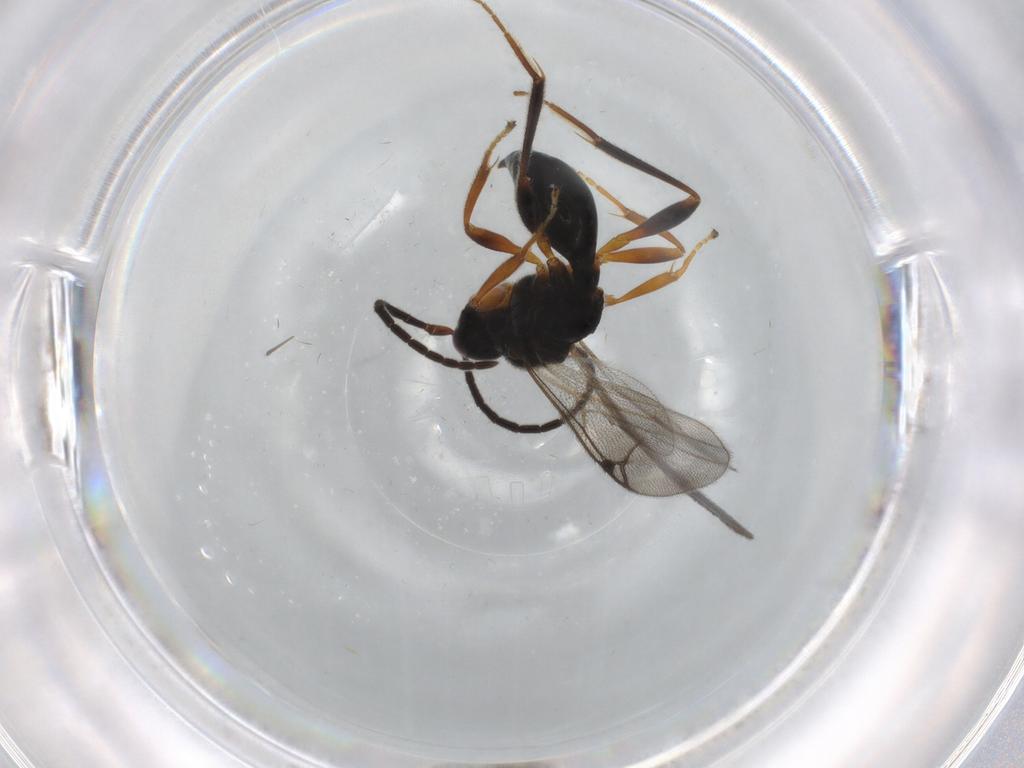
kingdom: Animalia
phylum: Arthropoda
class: Insecta
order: Hymenoptera
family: Proctotrupidae
